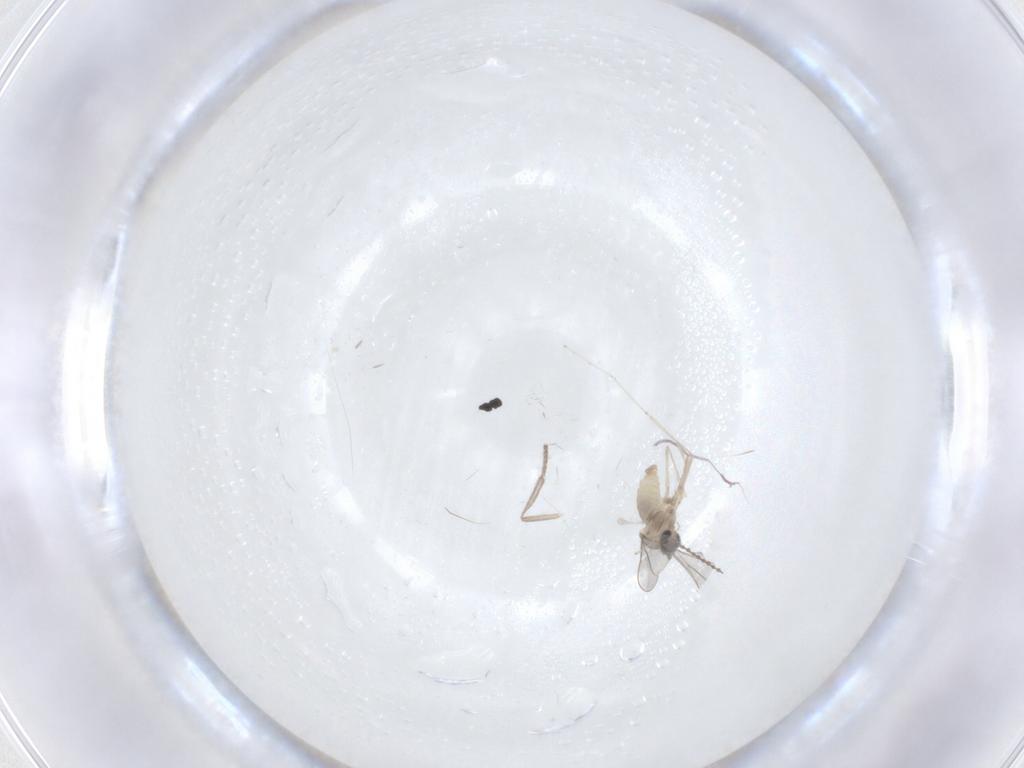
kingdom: Animalia
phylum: Arthropoda
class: Insecta
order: Diptera
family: Psychodidae
